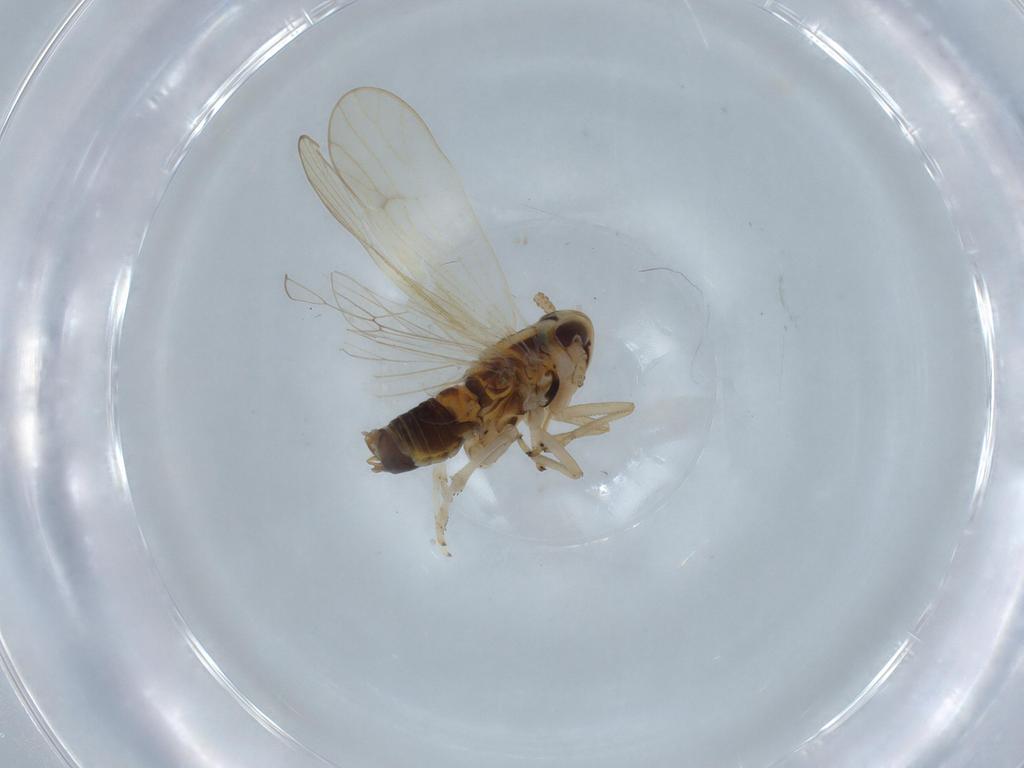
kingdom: Animalia
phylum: Arthropoda
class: Insecta
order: Hemiptera
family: Delphacidae
